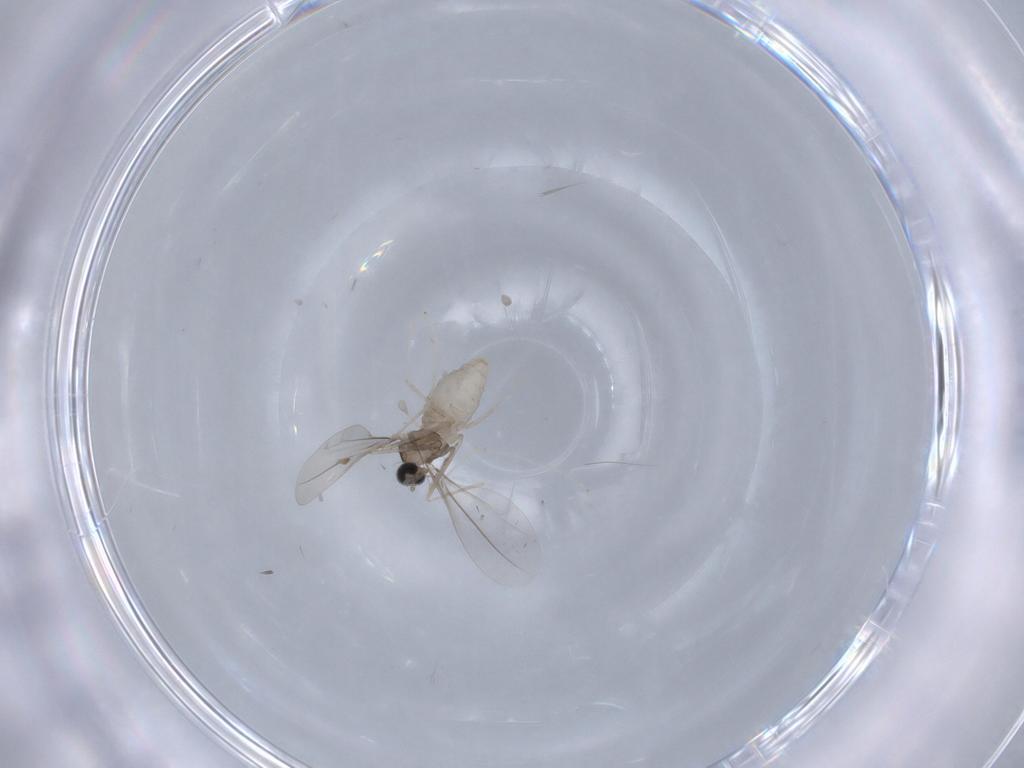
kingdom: Animalia
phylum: Arthropoda
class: Insecta
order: Diptera
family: Cecidomyiidae
